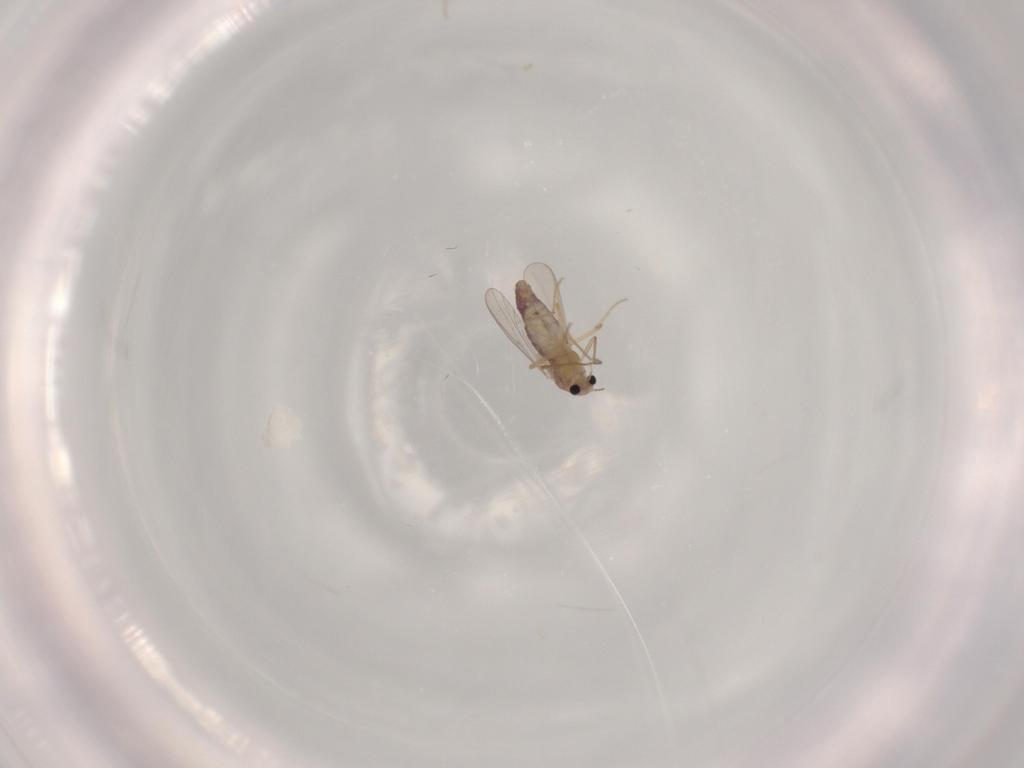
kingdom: Animalia
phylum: Arthropoda
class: Insecta
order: Diptera
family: Chironomidae
